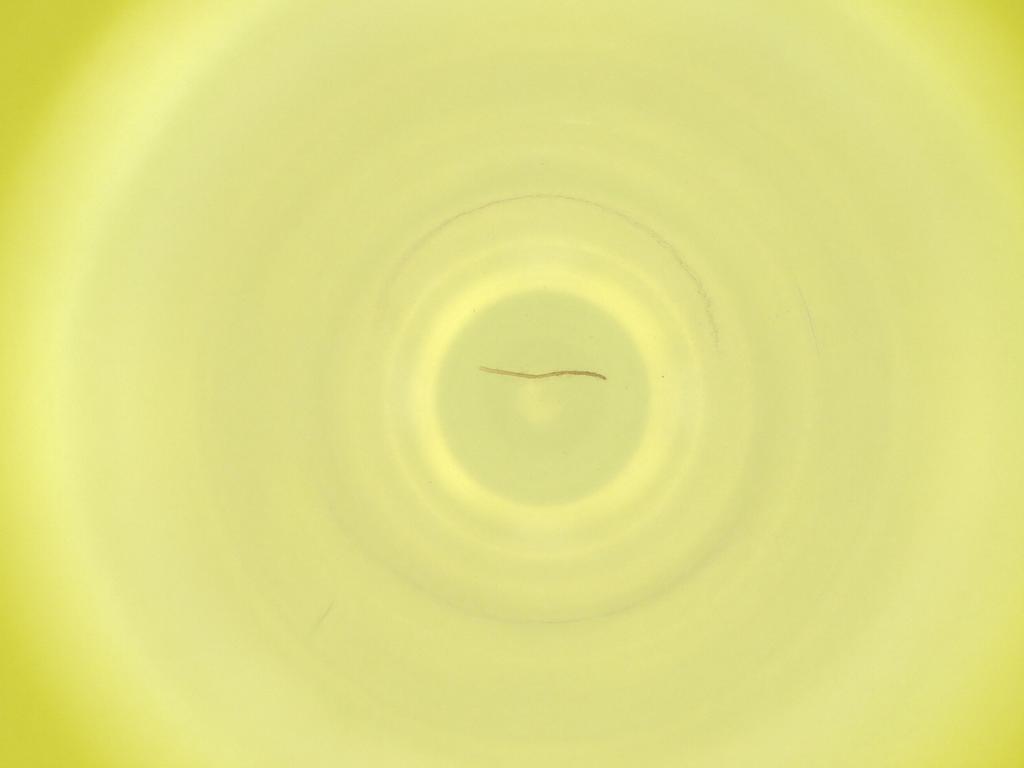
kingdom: Animalia
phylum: Arthropoda
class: Insecta
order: Diptera
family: Cecidomyiidae
